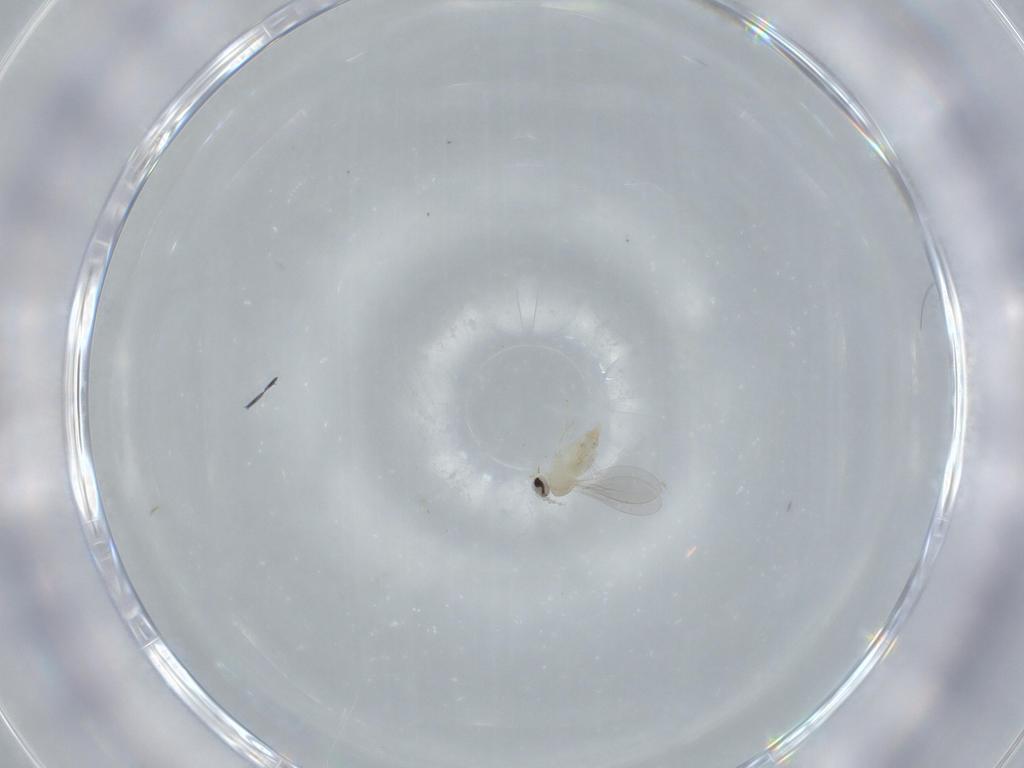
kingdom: Animalia
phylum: Arthropoda
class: Insecta
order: Diptera
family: Cecidomyiidae
